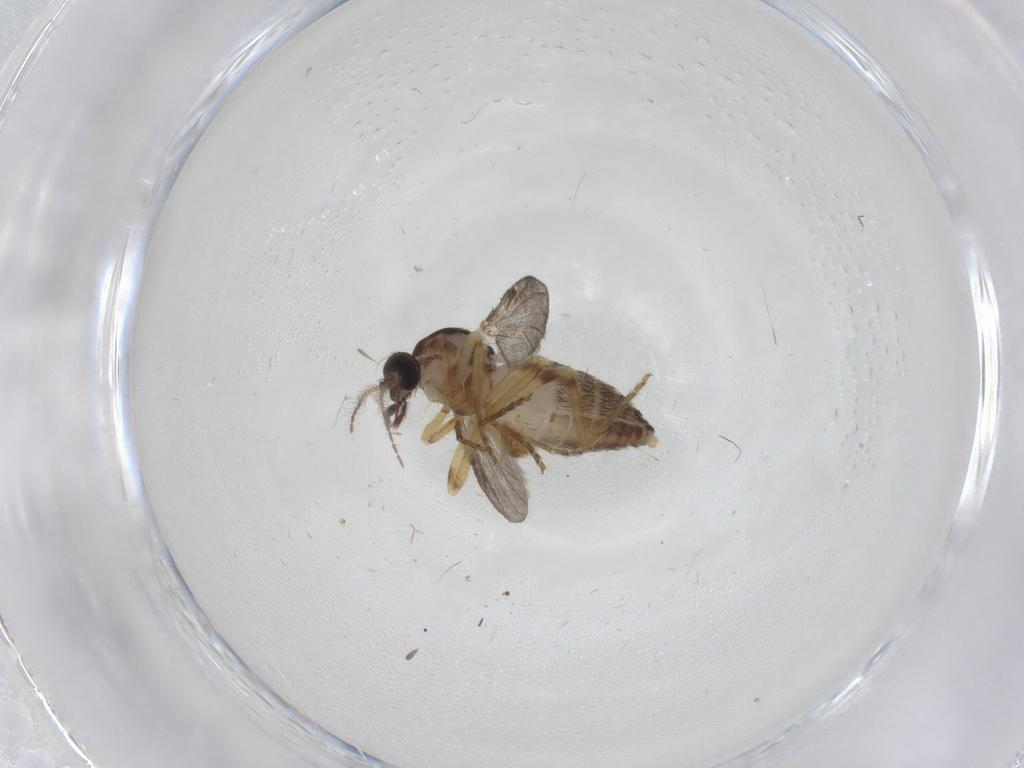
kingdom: Animalia
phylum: Arthropoda
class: Insecta
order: Diptera
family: Ceratopogonidae
